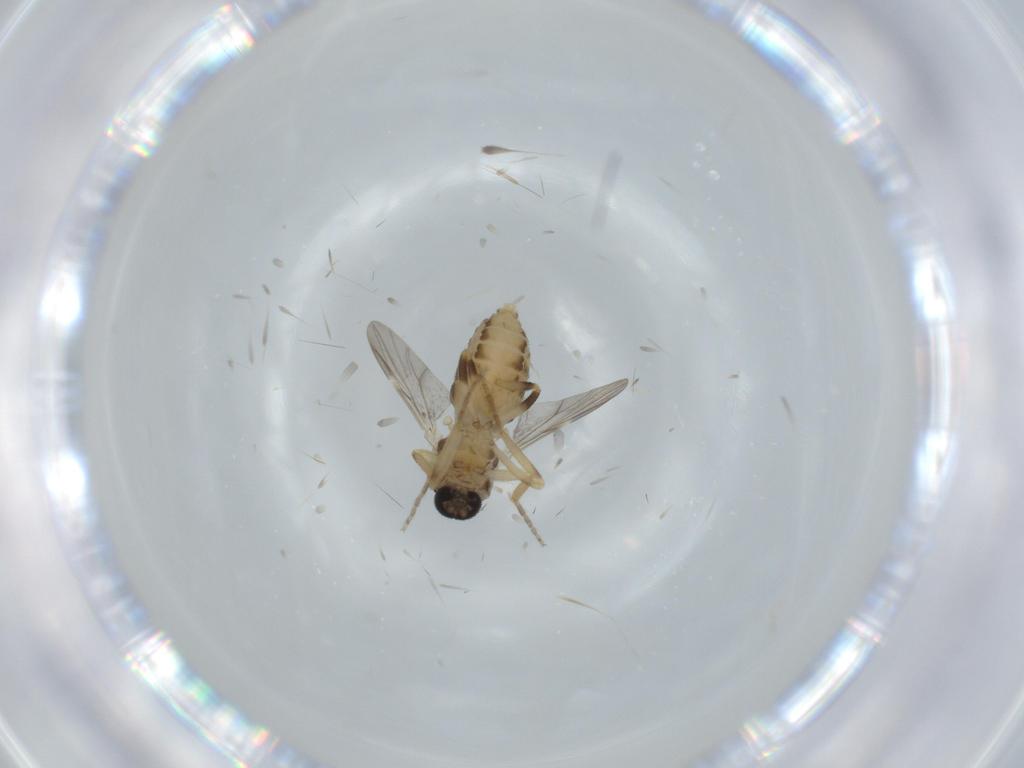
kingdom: Animalia
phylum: Arthropoda
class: Insecta
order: Diptera
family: Ceratopogonidae
